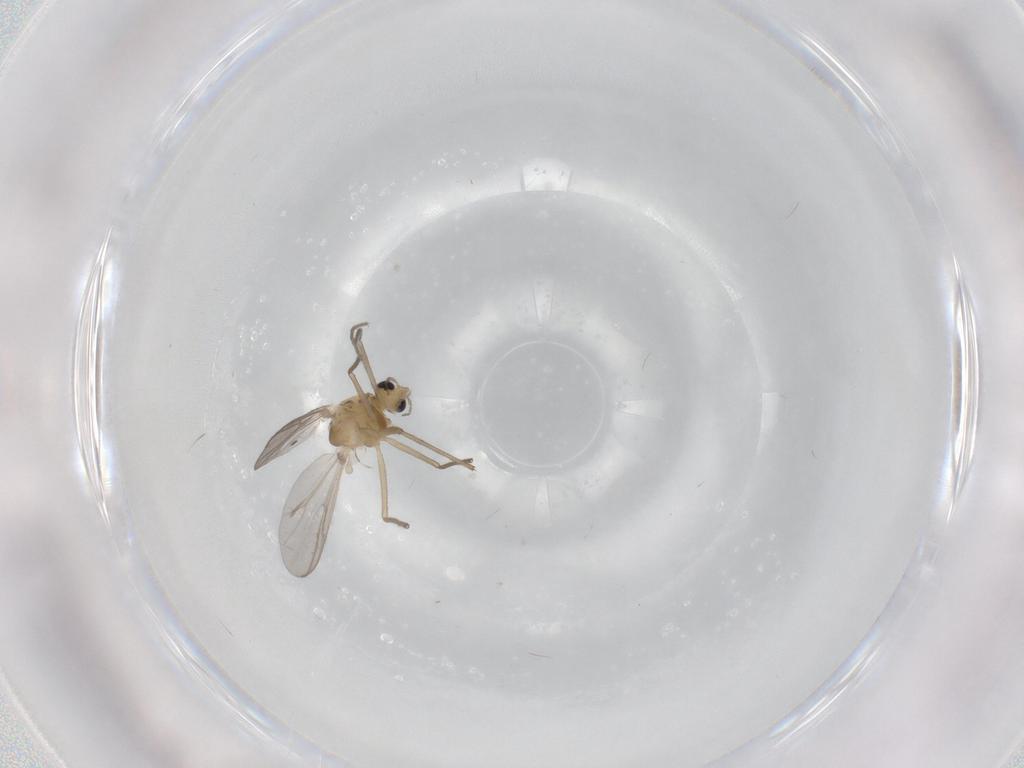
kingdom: Animalia
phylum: Arthropoda
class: Insecta
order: Diptera
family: Chironomidae
